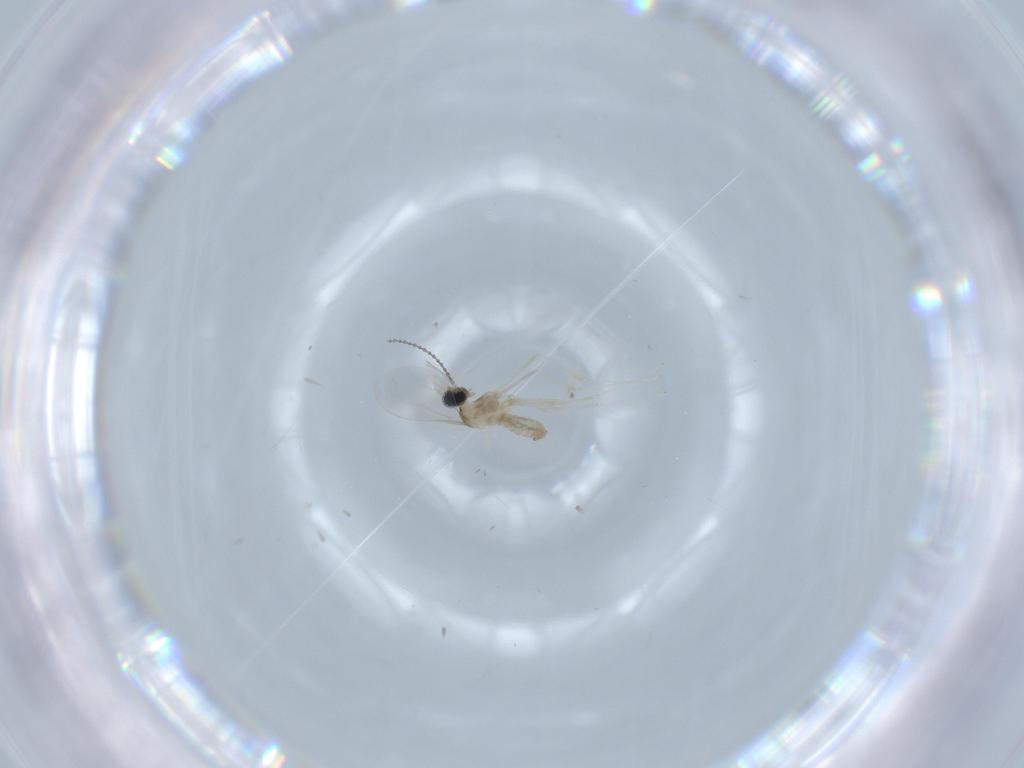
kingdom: Animalia
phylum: Arthropoda
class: Insecta
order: Diptera
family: Cecidomyiidae
